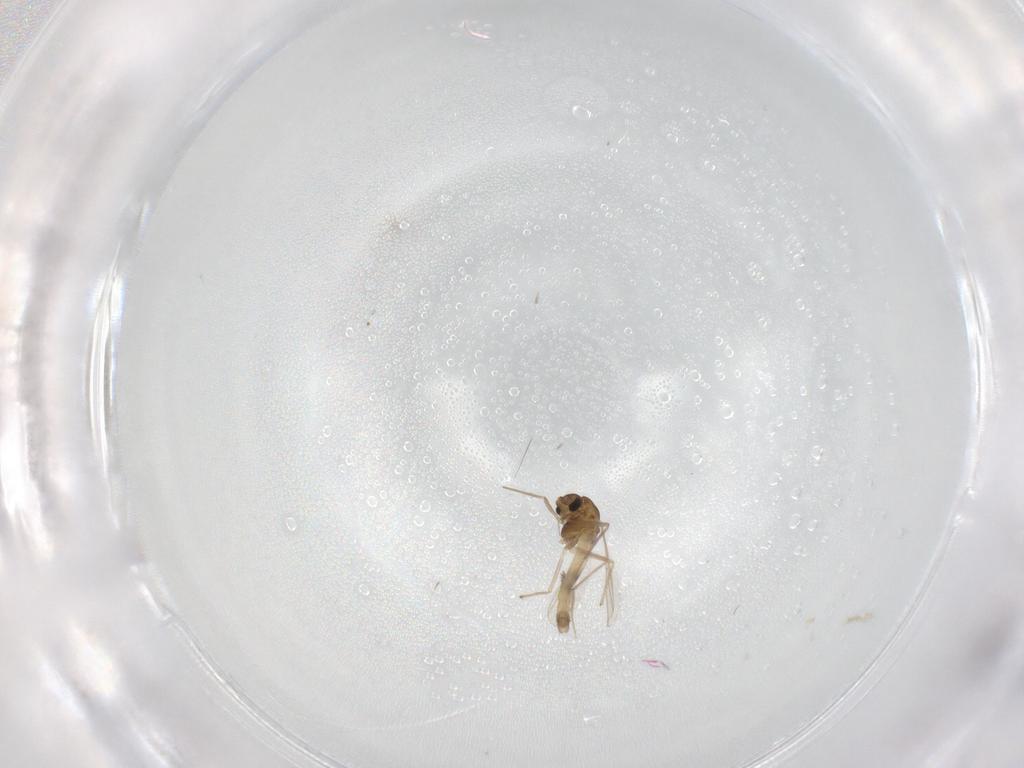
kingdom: Animalia
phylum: Arthropoda
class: Insecta
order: Diptera
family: Chironomidae
